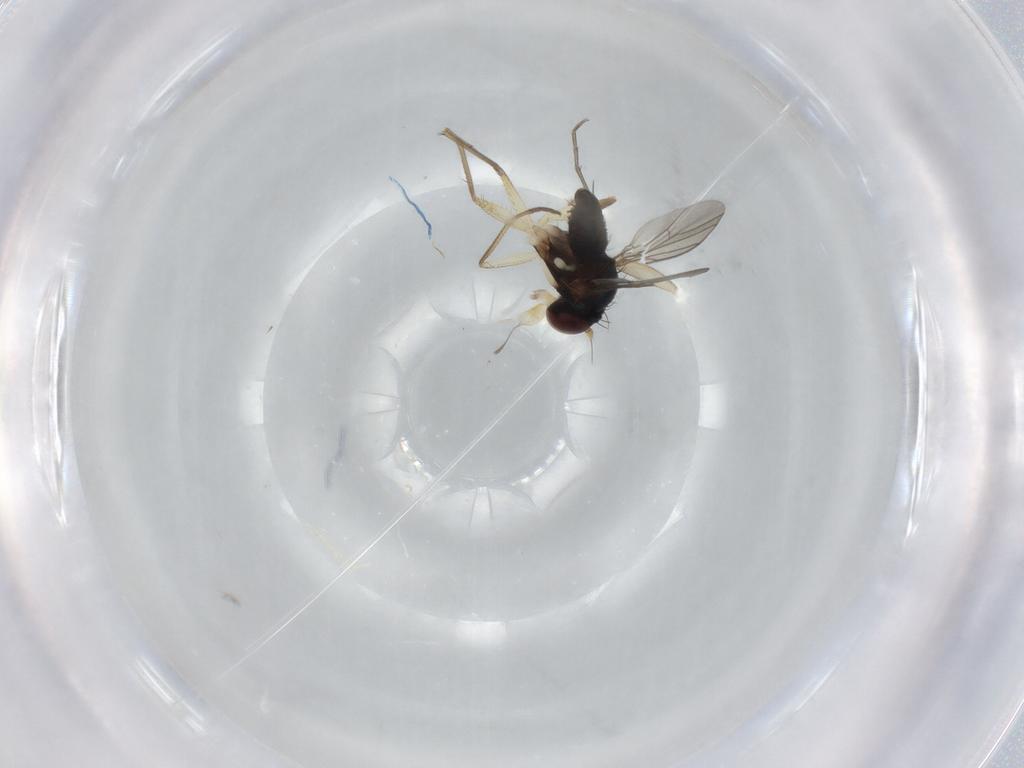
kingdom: Animalia
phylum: Arthropoda
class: Insecta
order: Diptera
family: Dolichopodidae
